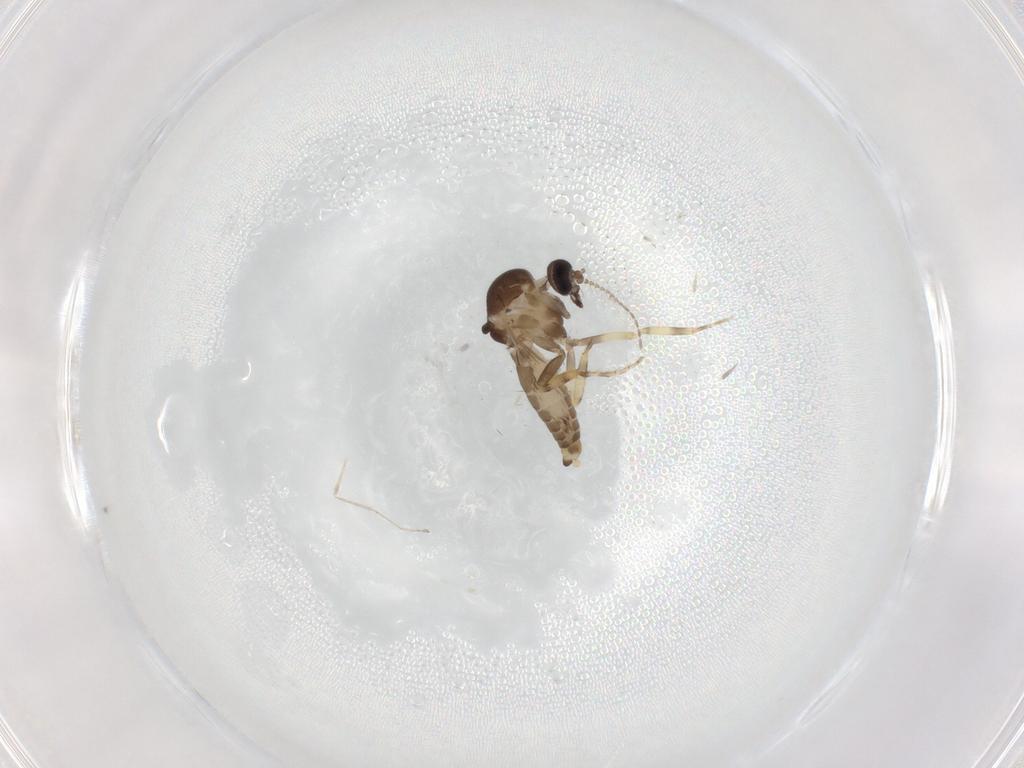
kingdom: Animalia
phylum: Arthropoda
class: Insecta
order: Diptera
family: Ceratopogonidae
